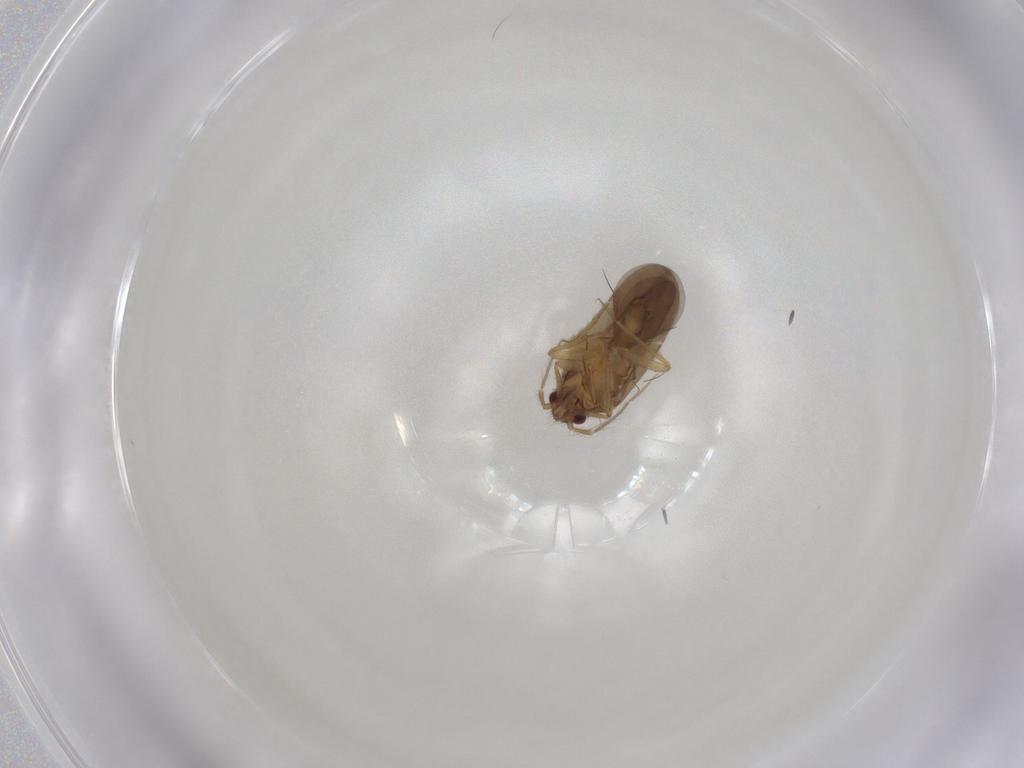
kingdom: Animalia
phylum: Arthropoda
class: Insecta
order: Hemiptera
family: Ceratocombidae
